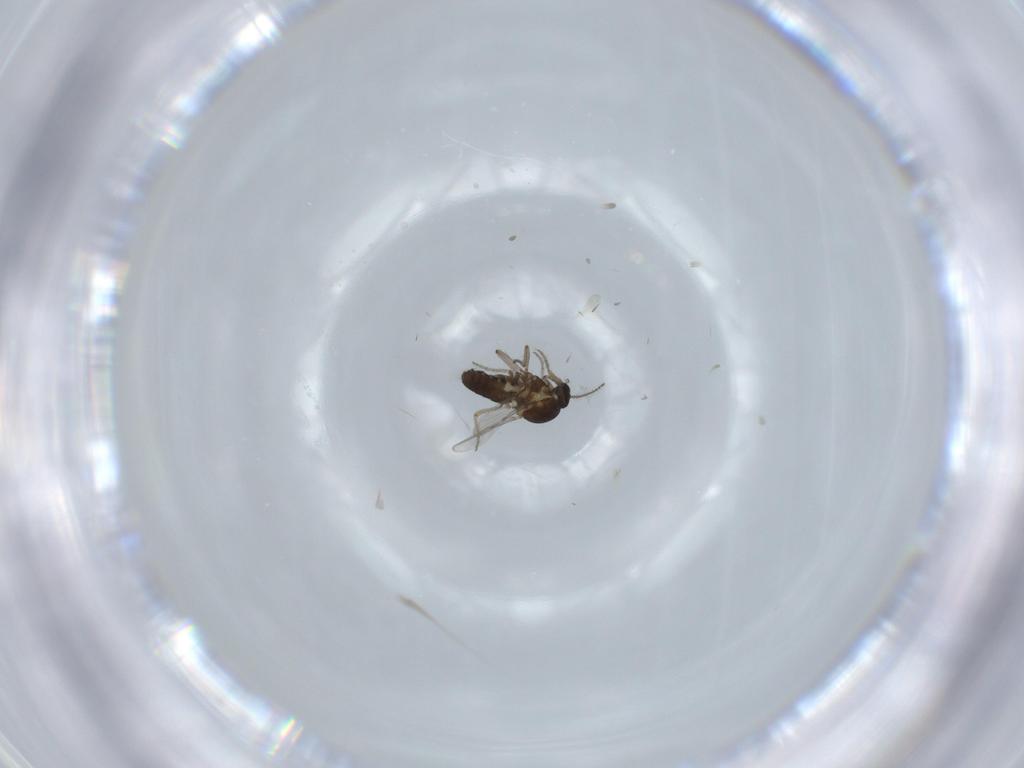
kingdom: Animalia
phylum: Arthropoda
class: Insecta
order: Diptera
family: Ceratopogonidae
